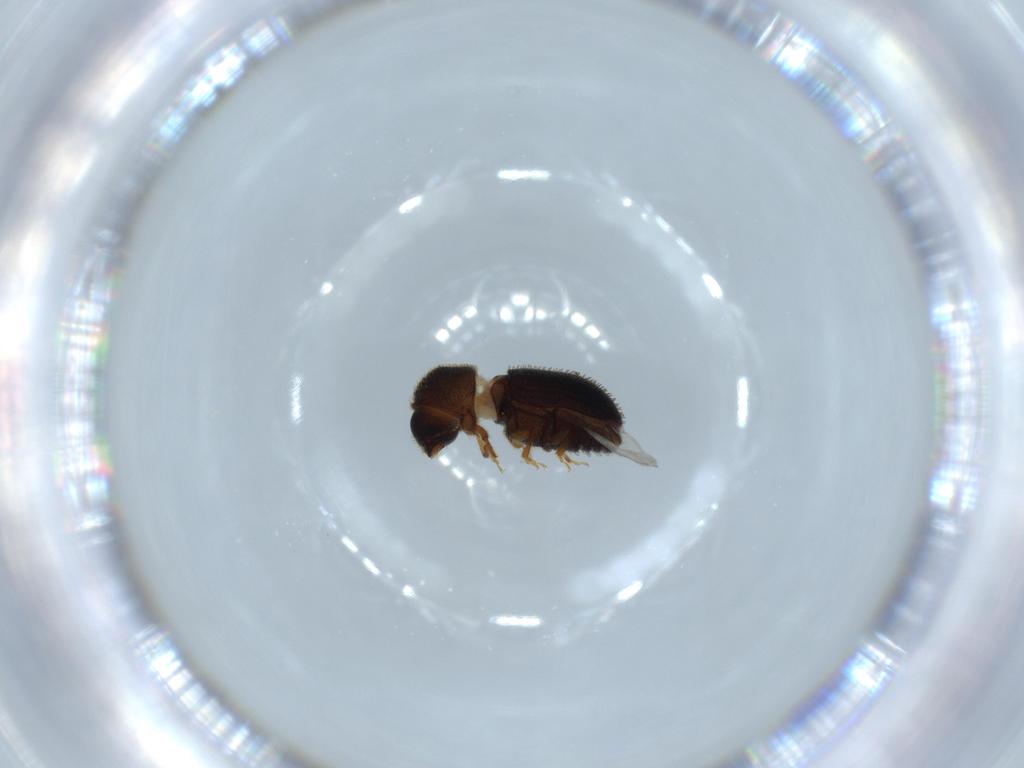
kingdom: Animalia
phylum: Arthropoda
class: Insecta
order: Coleoptera
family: Curculionidae
